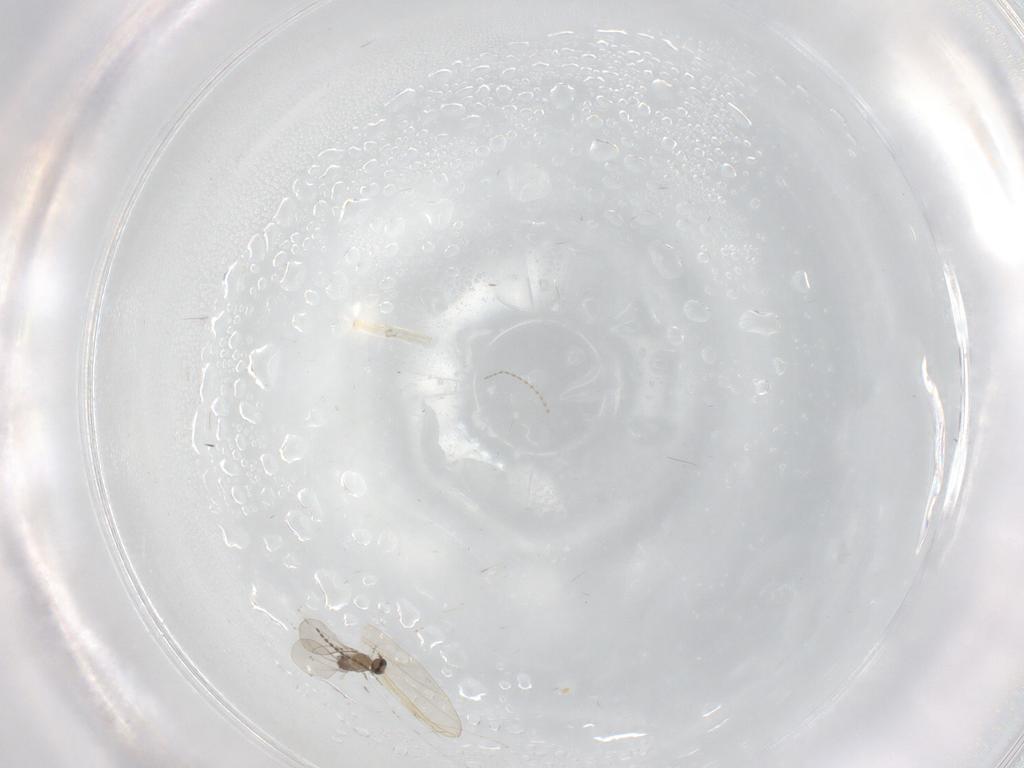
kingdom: Animalia
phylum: Arthropoda
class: Insecta
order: Diptera
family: Chironomidae
